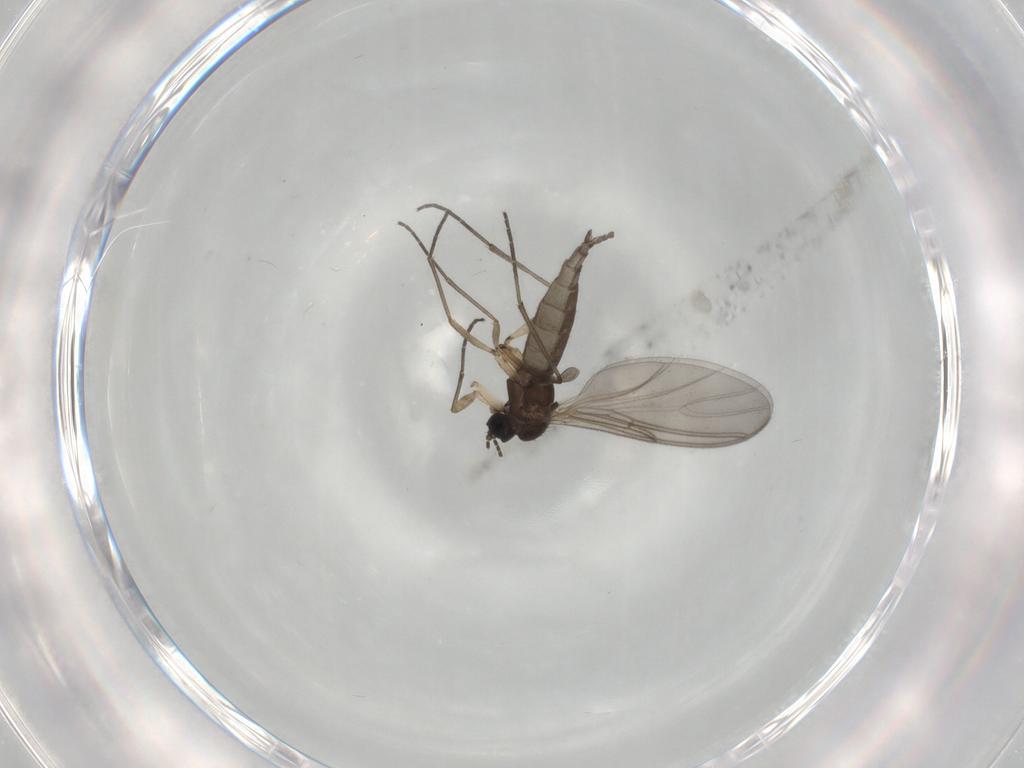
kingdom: Animalia
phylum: Arthropoda
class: Insecta
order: Diptera
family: Sciaridae
